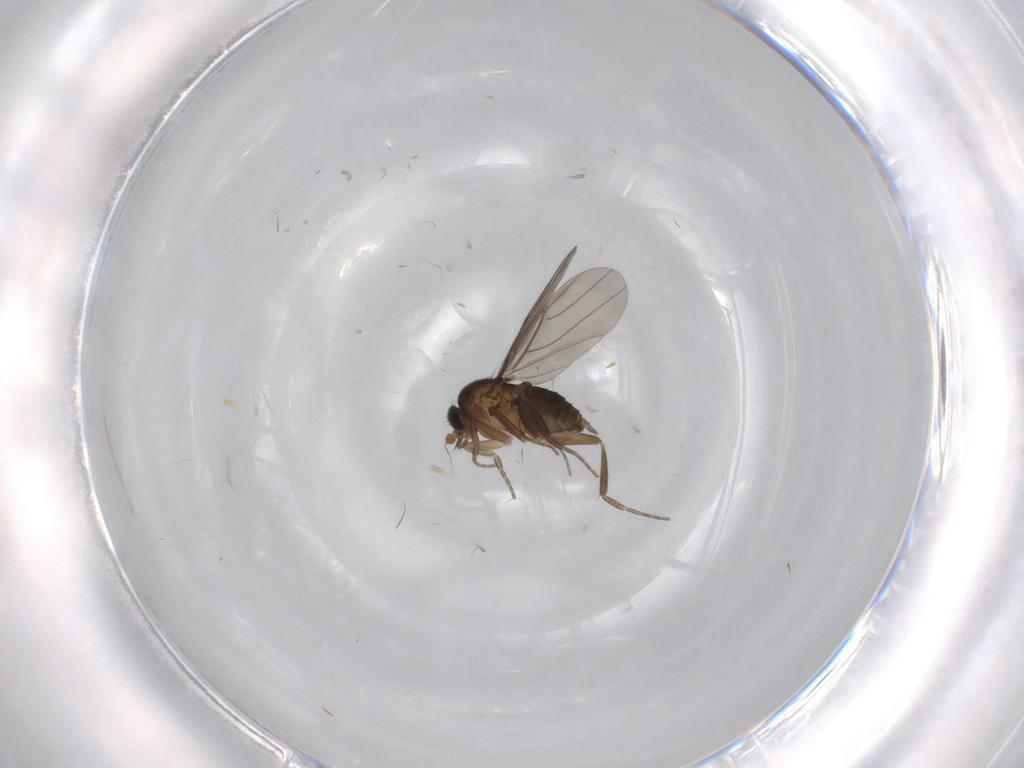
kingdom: Animalia
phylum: Arthropoda
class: Insecta
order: Diptera
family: Phoridae
